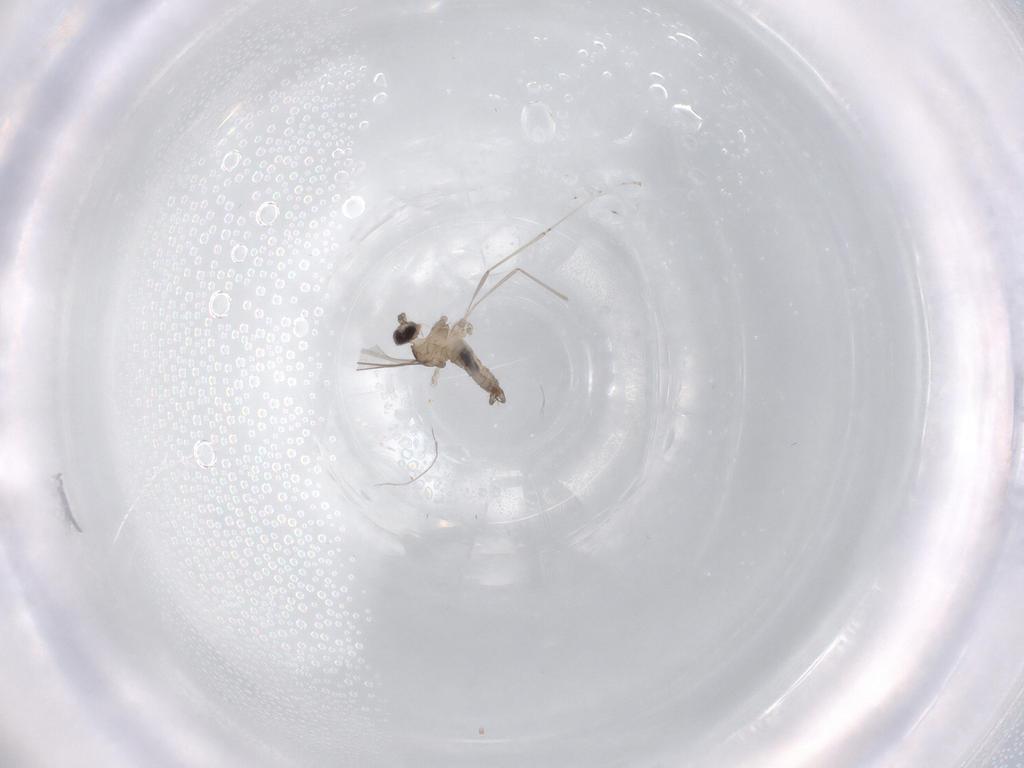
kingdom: Animalia
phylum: Arthropoda
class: Insecta
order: Diptera
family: Cecidomyiidae
